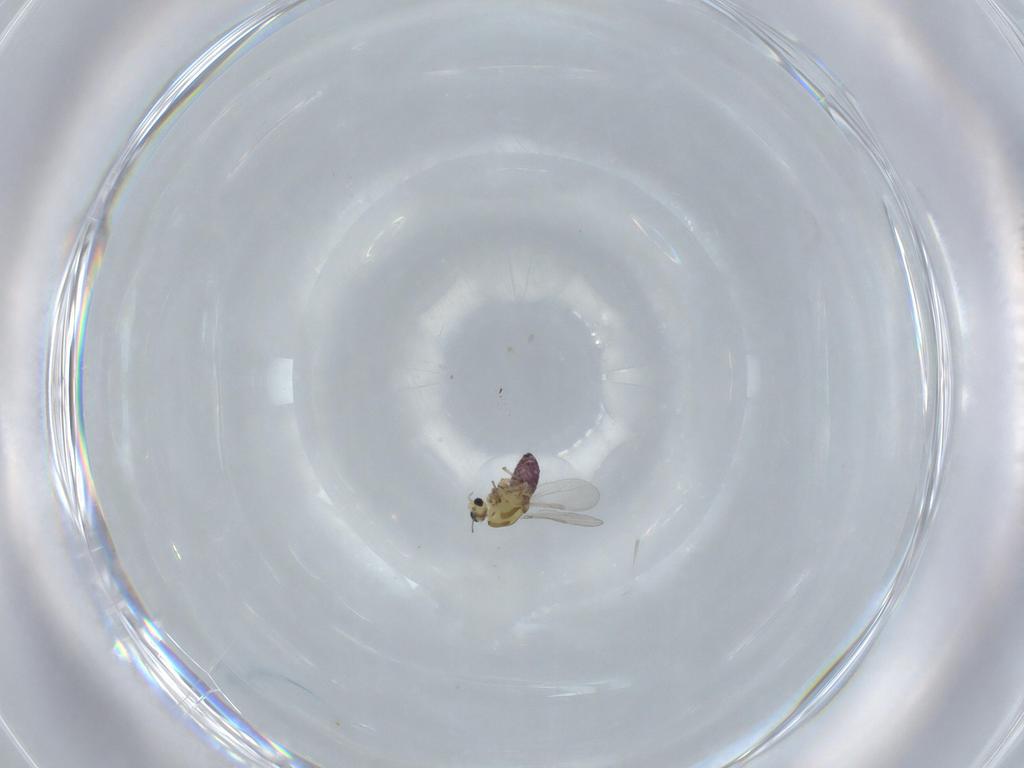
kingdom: Animalia
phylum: Arthropoda
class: Insecta
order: Diptera
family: Chironomidae
